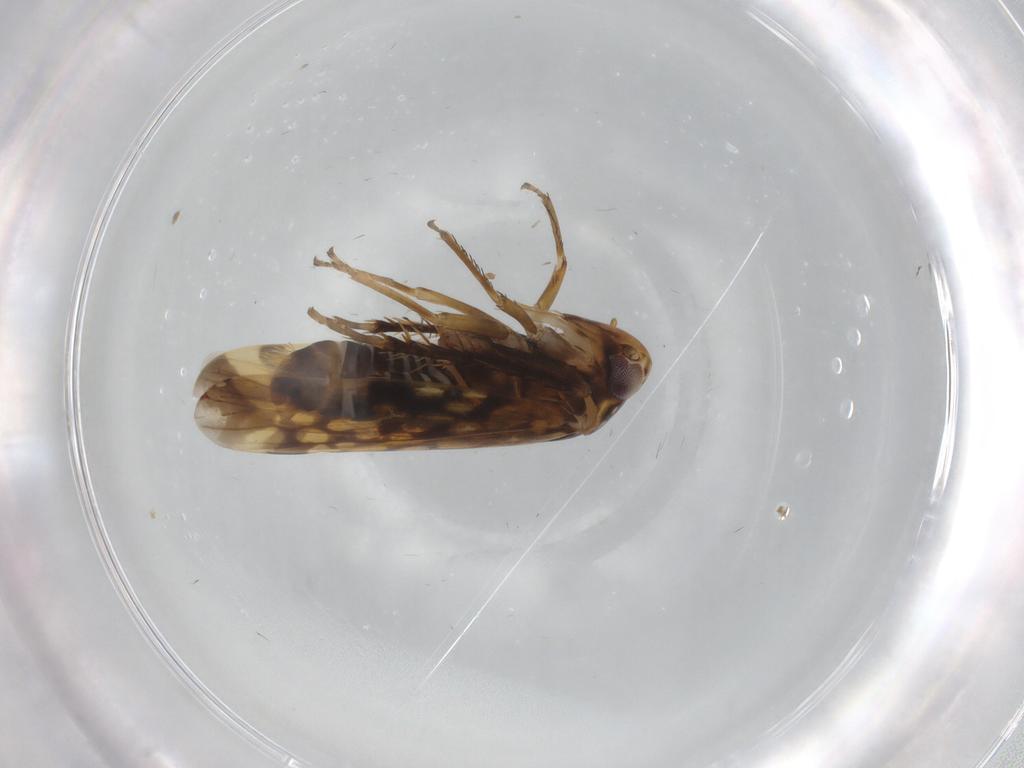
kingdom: Animalia
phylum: Arthropoda
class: Insecta
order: Hemiptera
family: Cicadellidae
